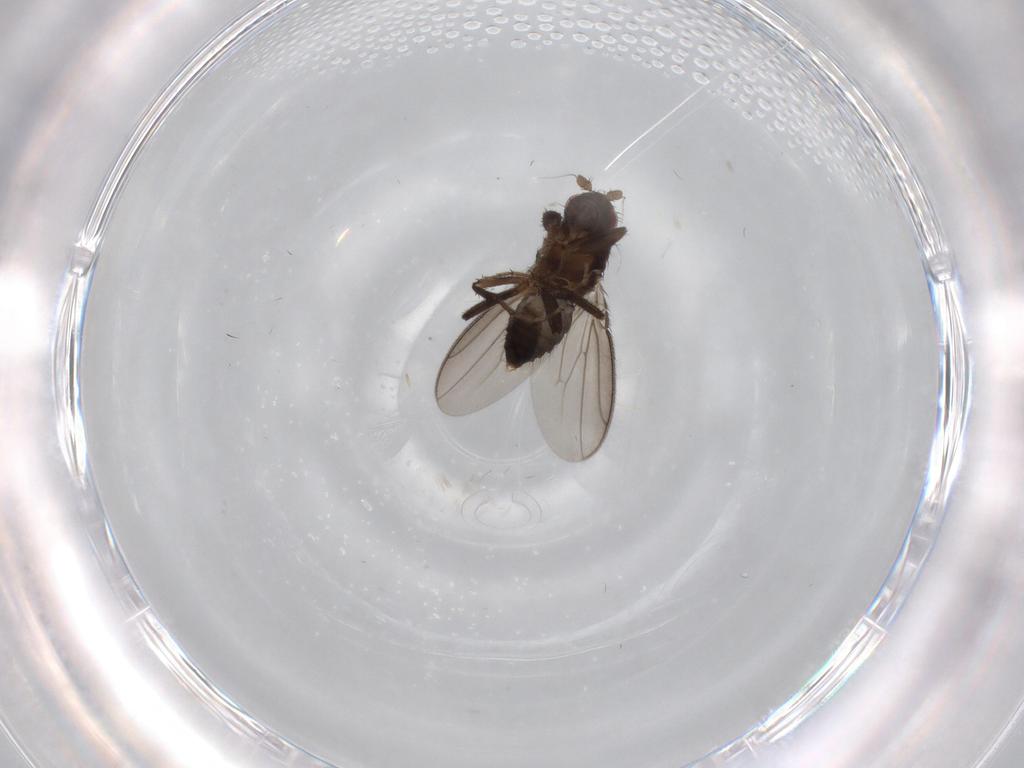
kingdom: Animalia
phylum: Arthropoda
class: Insecta
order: Diptera
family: Sphaeroceridae
